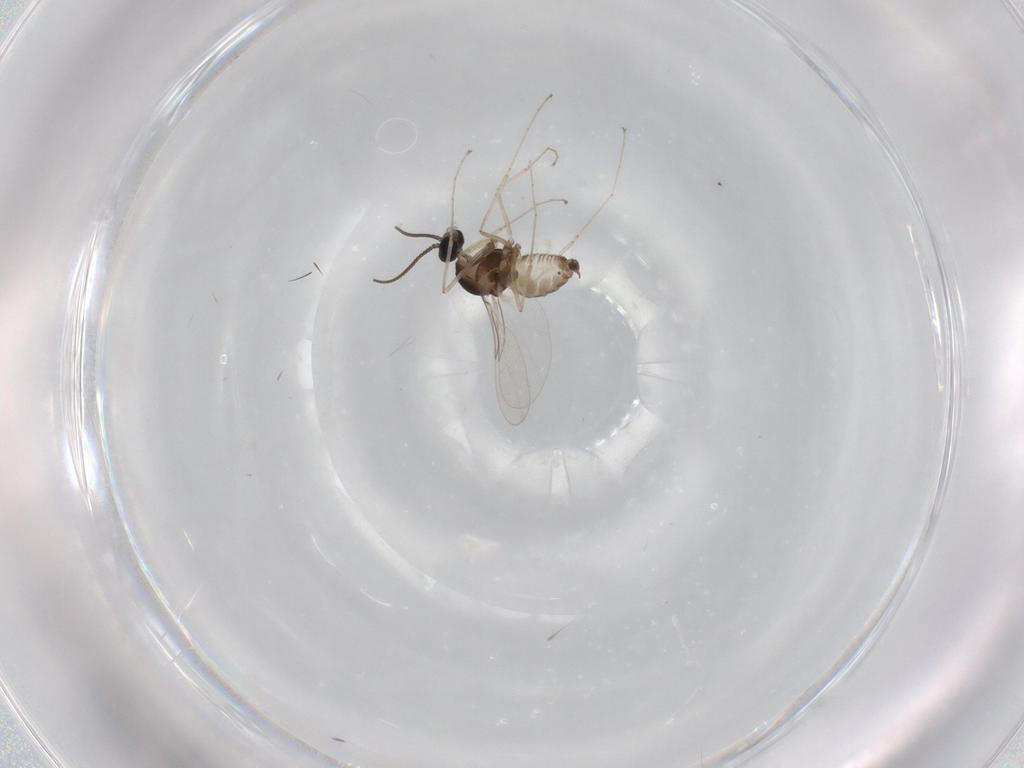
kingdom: Animalia
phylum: Arthropoda
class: Insecta
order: Diptera
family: Cecidomyiidae
